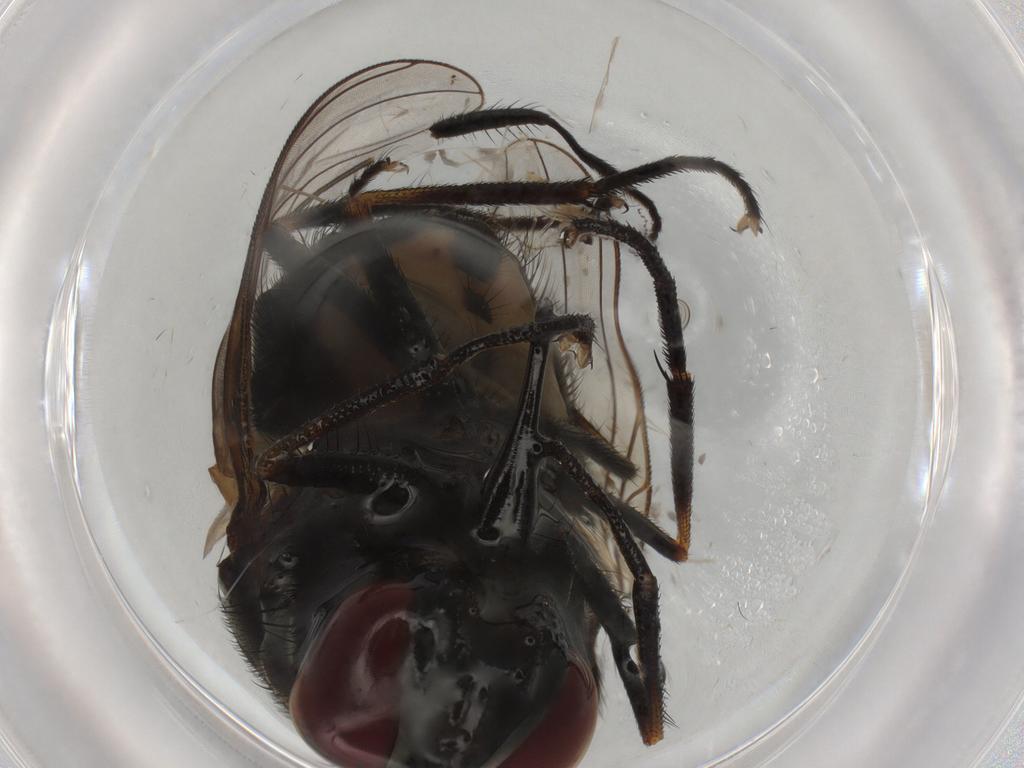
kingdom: Animalia
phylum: Arthropoda
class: Insecta
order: Diptera
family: Muscidae
